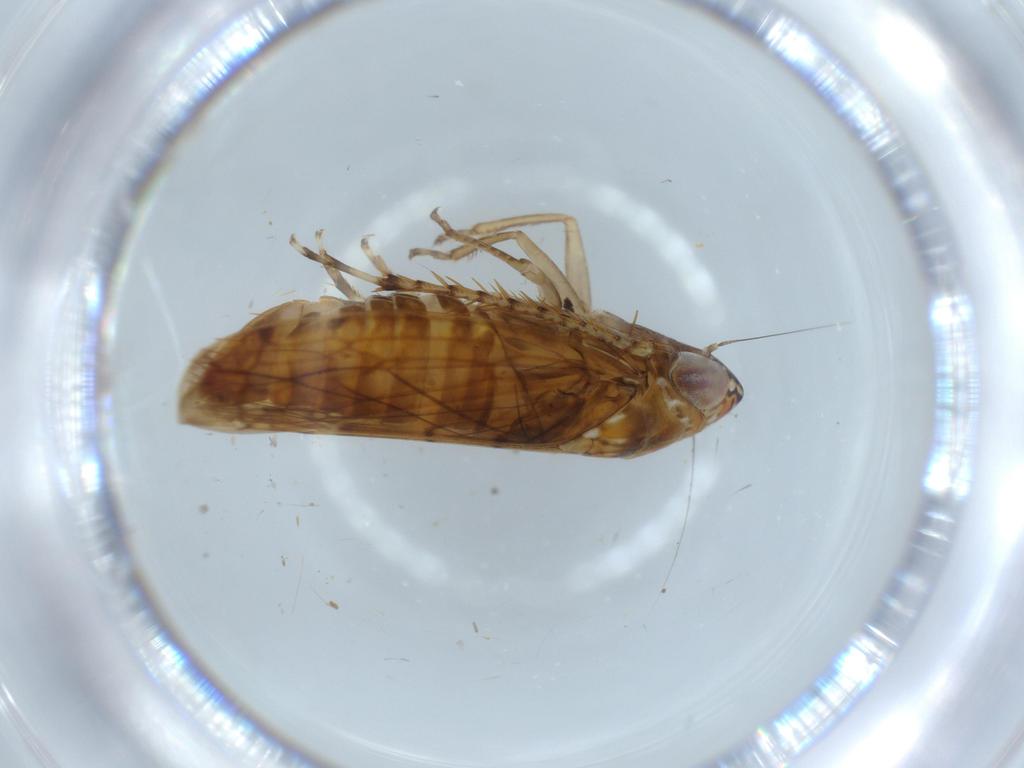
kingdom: Animalia
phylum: Arthropoda
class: Insecta
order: Hemiptera
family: Cicadellidae
